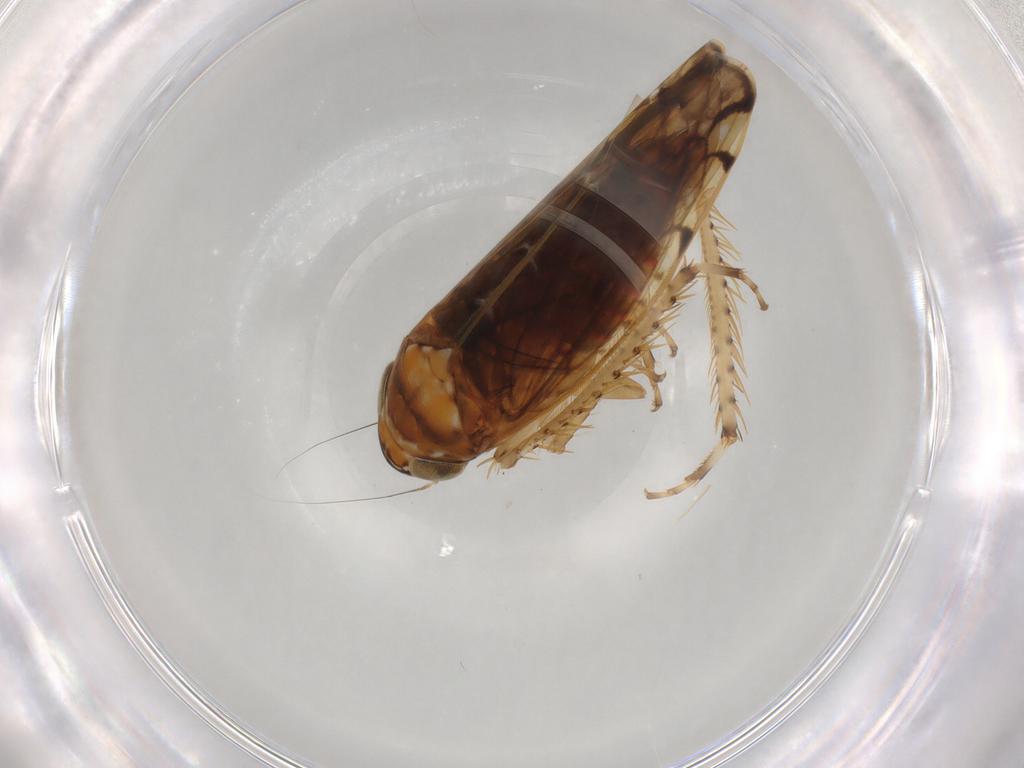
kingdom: Animalia
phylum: Arthropoda
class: Insecta
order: Hemiptera
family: Cicadellidae
